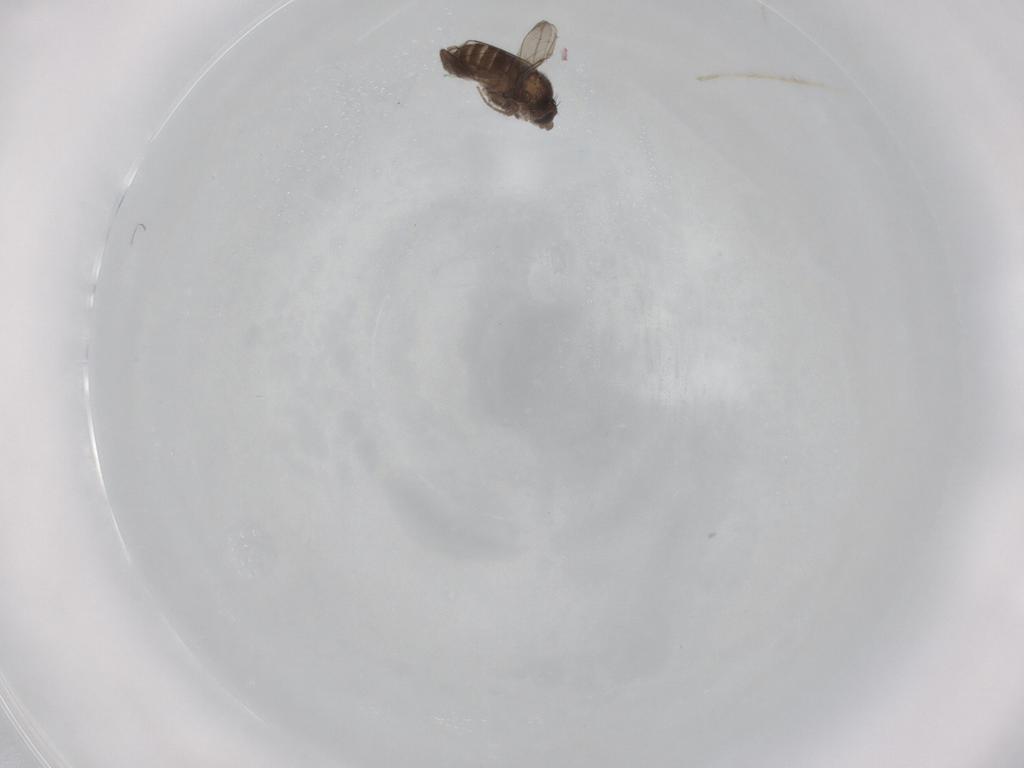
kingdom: Animalia
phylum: Arthropoda
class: Insecta
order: Diptera
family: Phoridae
